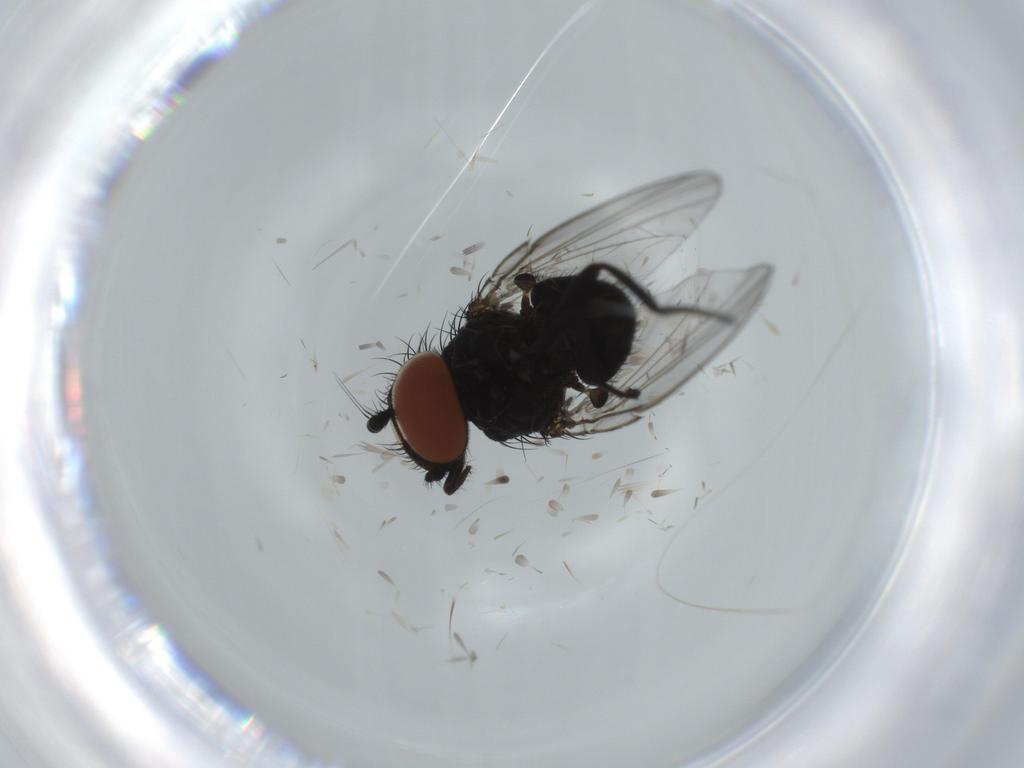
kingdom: Animalia
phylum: Arthropoda
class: Insecta
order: Diptera
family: Milichiidae
